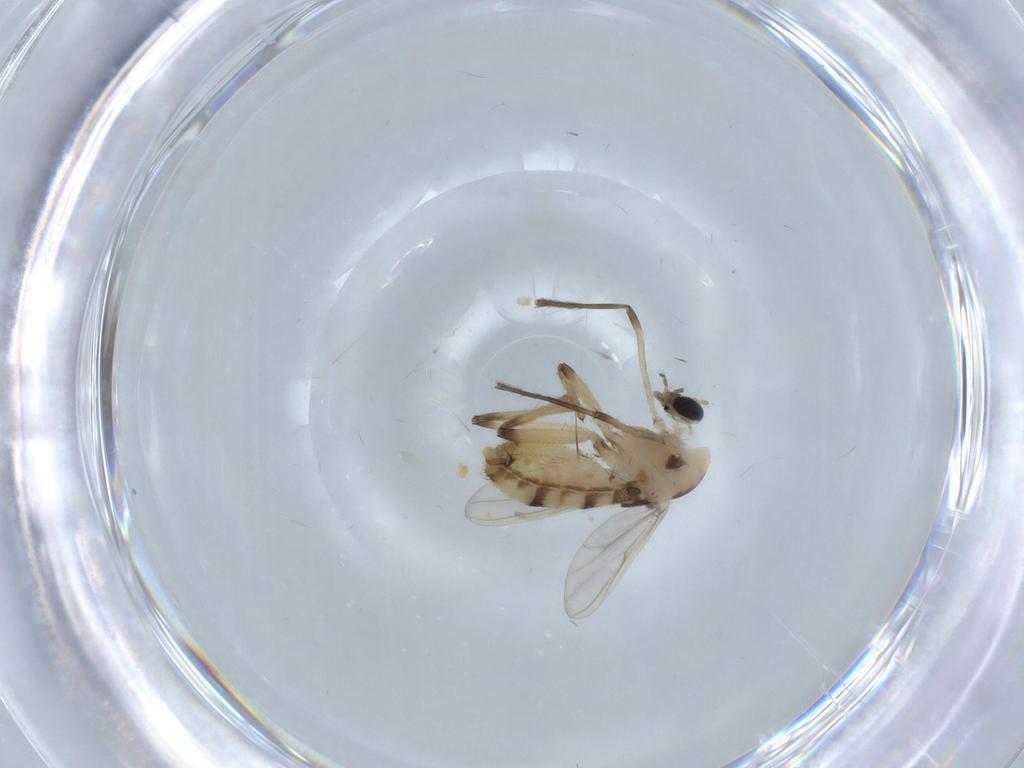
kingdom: Animalia
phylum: Arthropoda
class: Insecta
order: Diptera
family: Chironomidae
